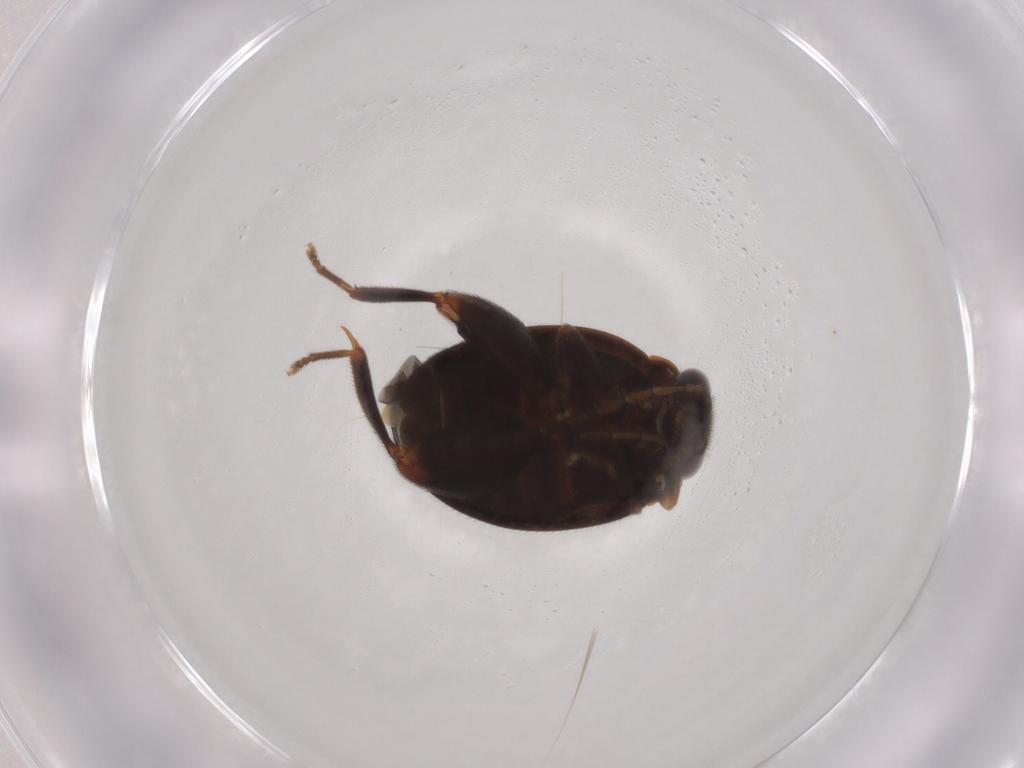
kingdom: Animalia
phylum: Arthropoda
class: Insecta
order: Coleoptera
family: Scirtidae
